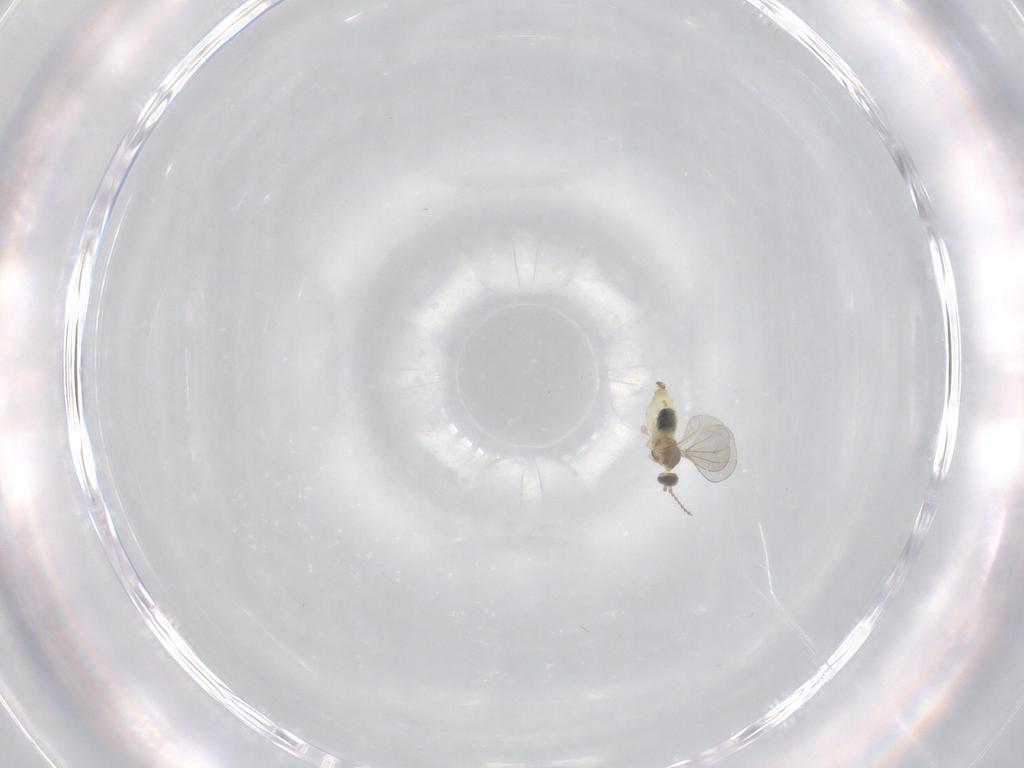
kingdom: Animalia
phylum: Arthropoda
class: Insecta
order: Diptera
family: Cecidomyiidae
